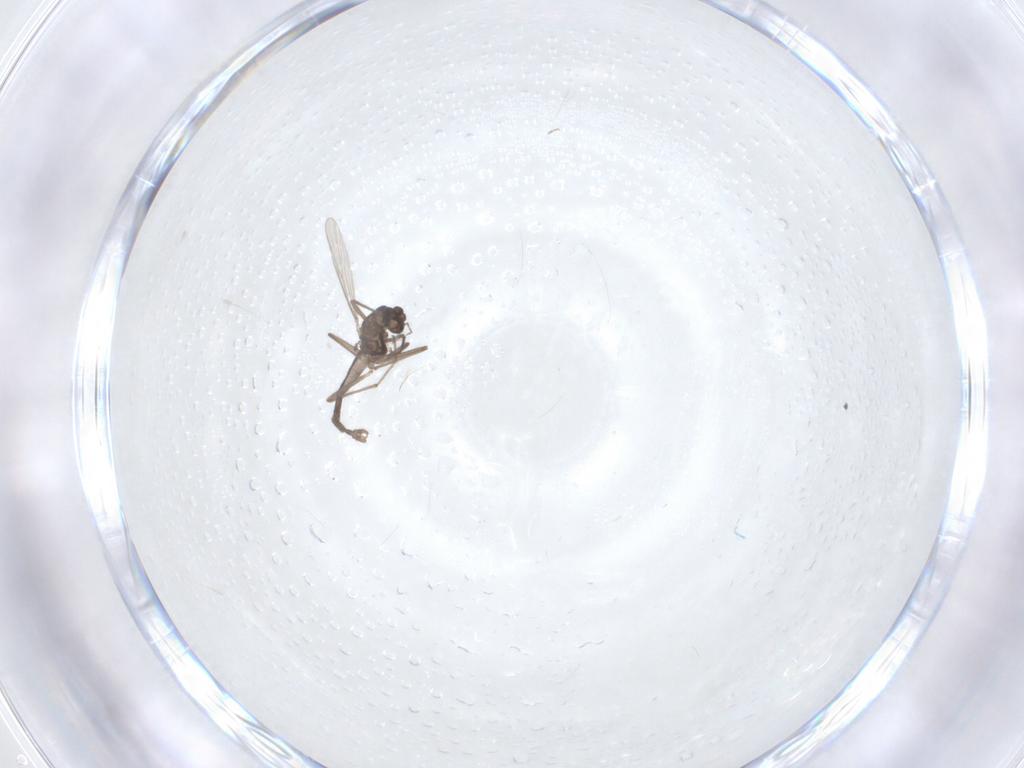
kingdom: Animalia
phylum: Arthropoda
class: Insecta
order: Diptera
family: Chironomidae
